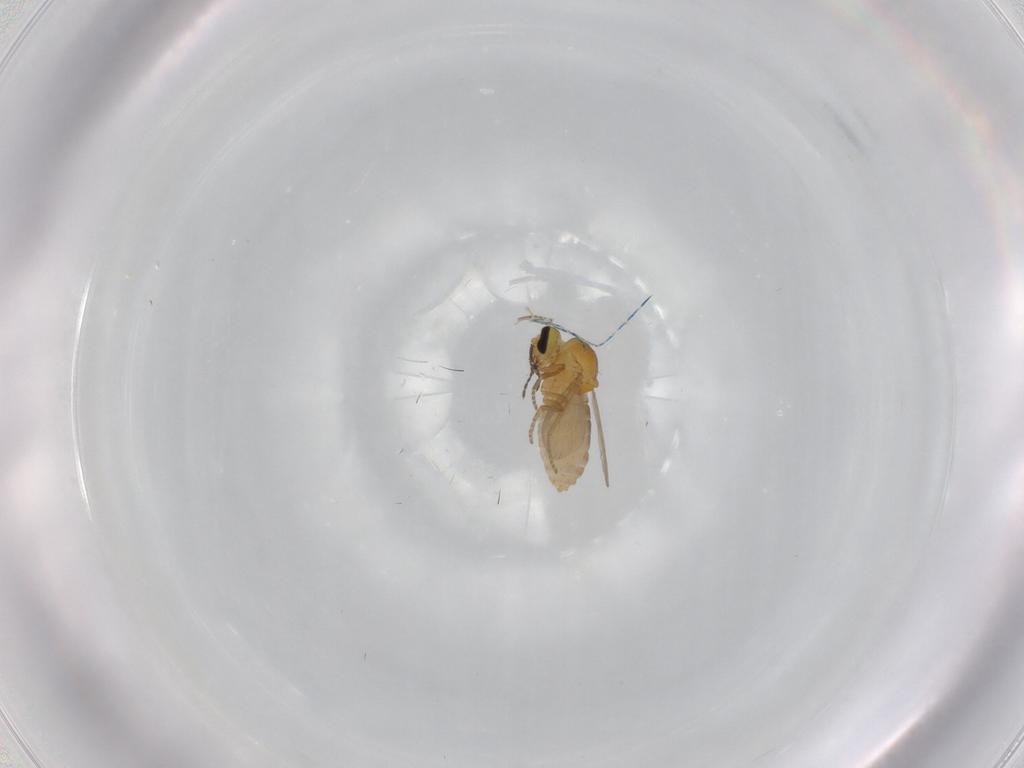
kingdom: Animalia
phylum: Arthropoda
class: Insecta
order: Diptera
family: Ceratopogonidae
